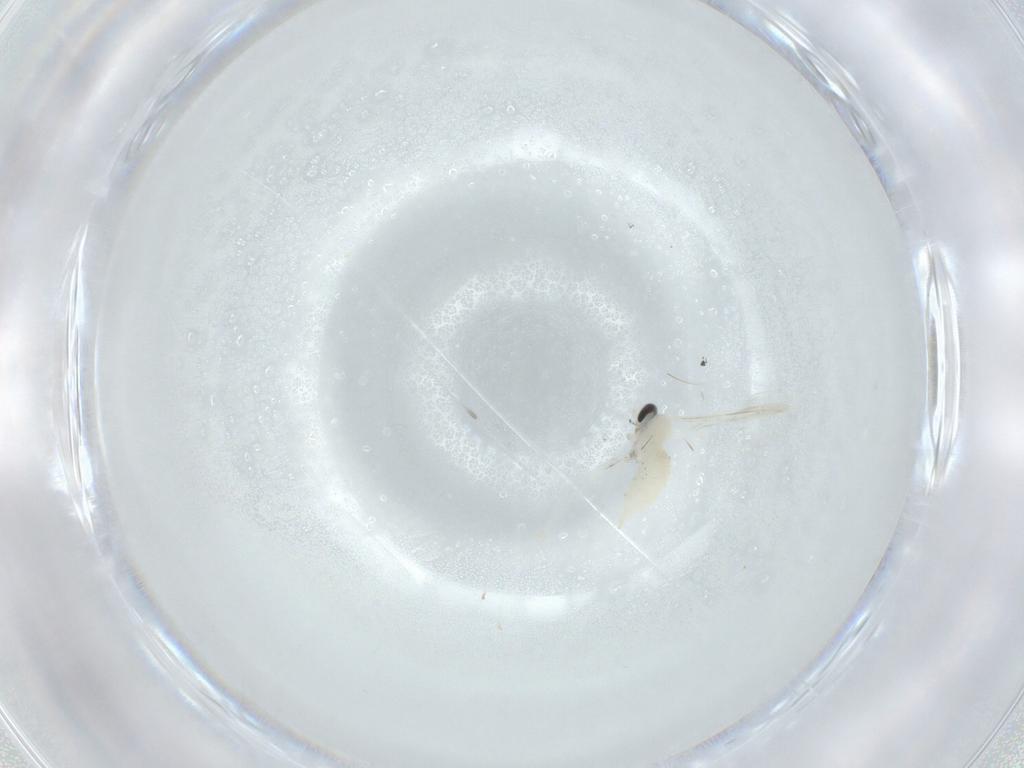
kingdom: Animalia
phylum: Arthropoda
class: Insecta
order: Diptera
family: Cecidomyiidae
